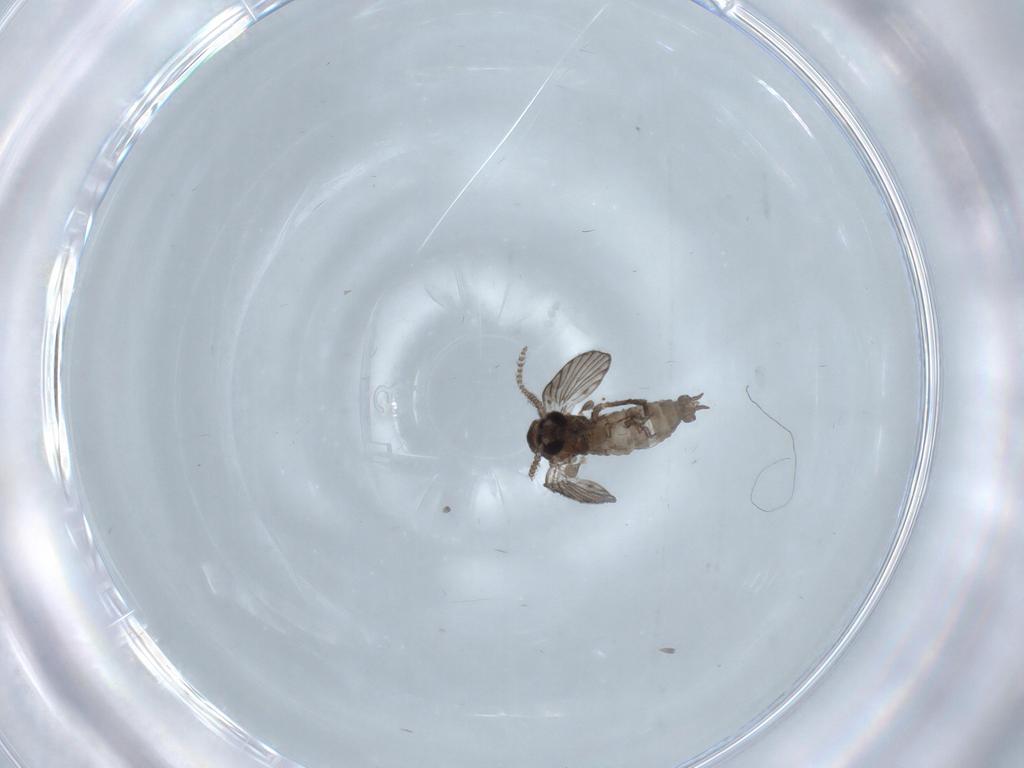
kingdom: Animalia
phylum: Arthropoda
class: Insecta
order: Diptera
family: Psychodidae
